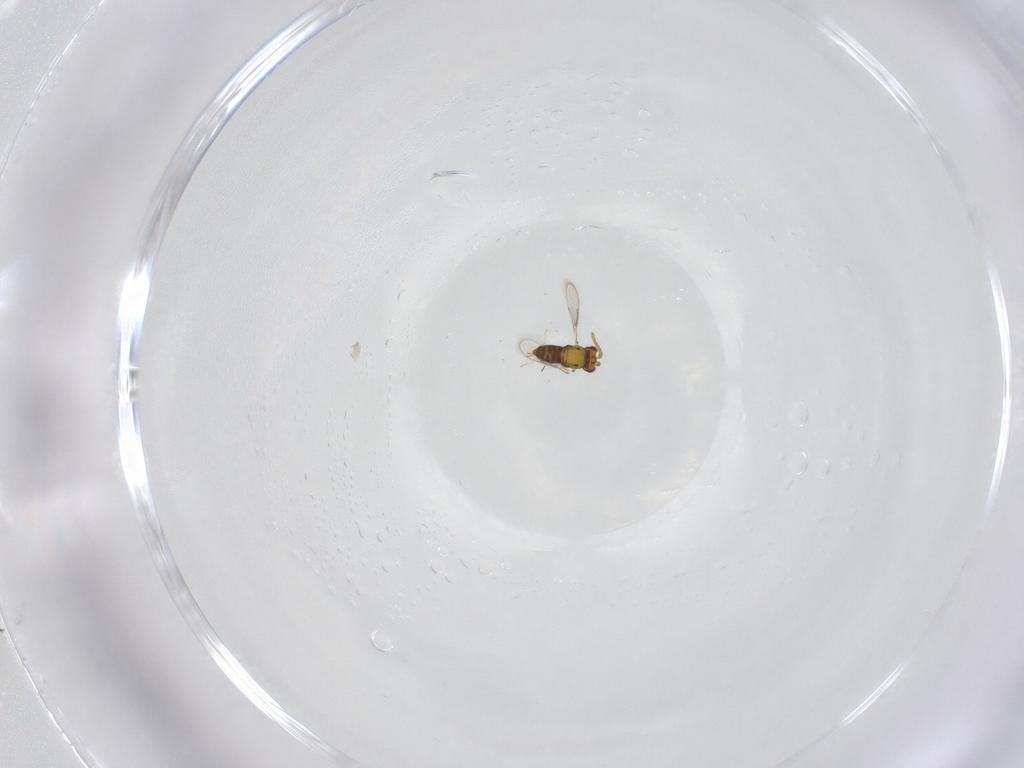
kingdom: Animalia
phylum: Arthropoda
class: Insecta
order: Hymenoptera
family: Aphelinidae
